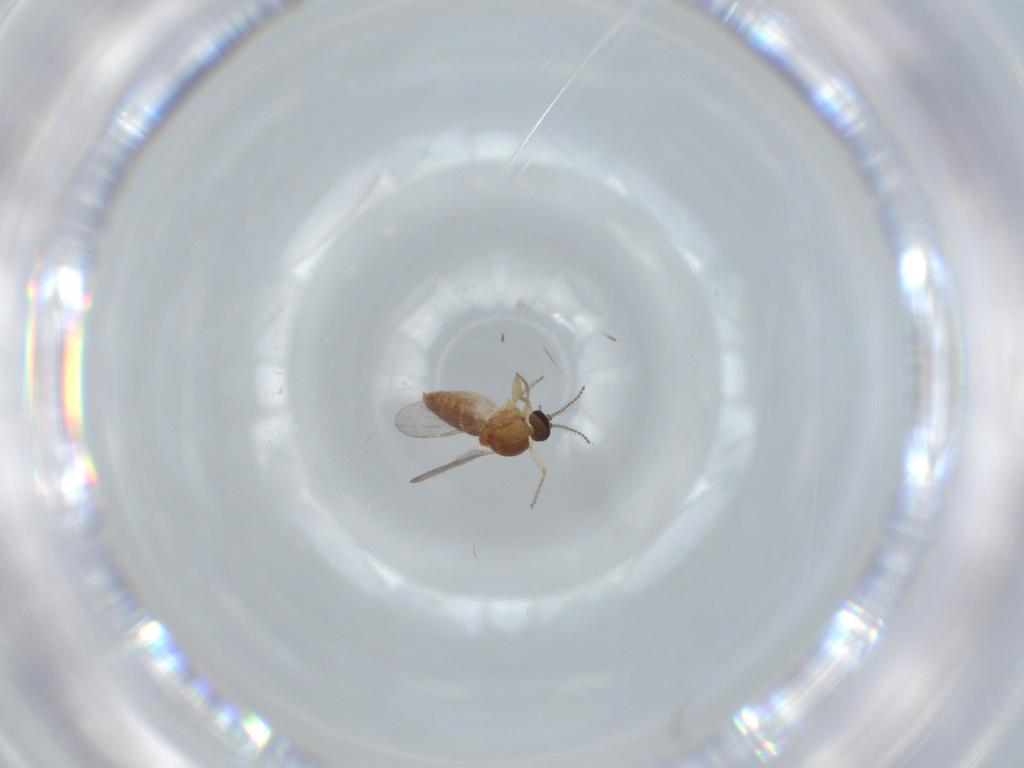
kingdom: Animalia
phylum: Arthropoda
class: Insecta
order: Diptera
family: Ceratopogonidae
